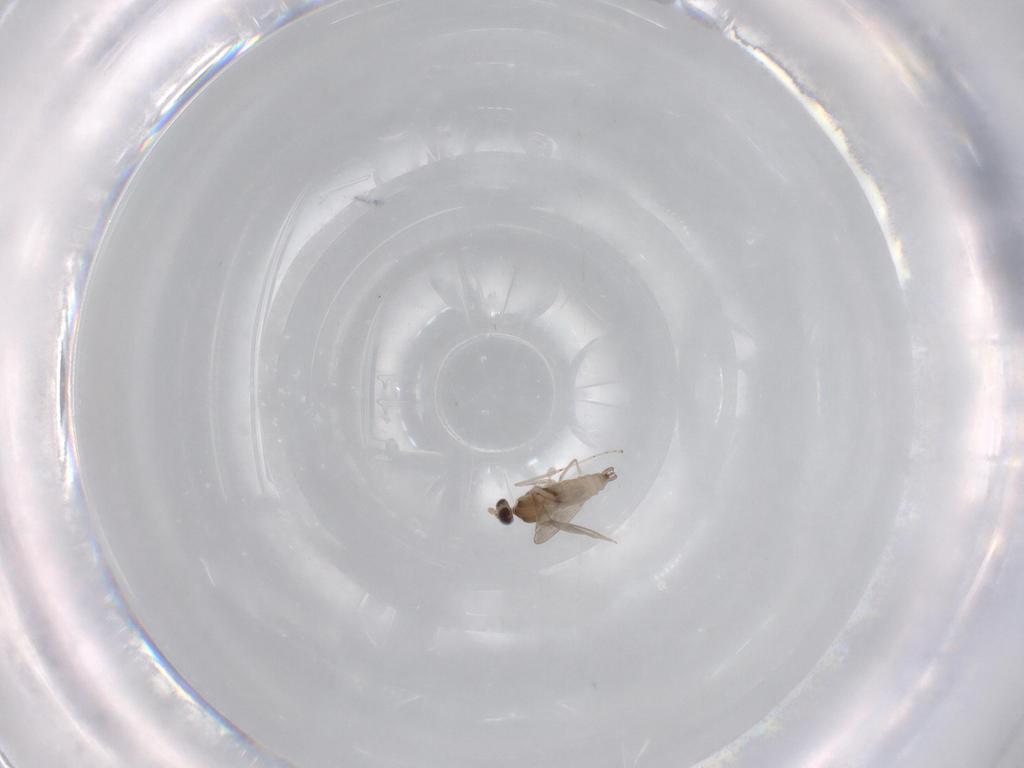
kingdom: Animalia
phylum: Arthropoda
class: Insecta
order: Diptera
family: Cecidomyiidae
